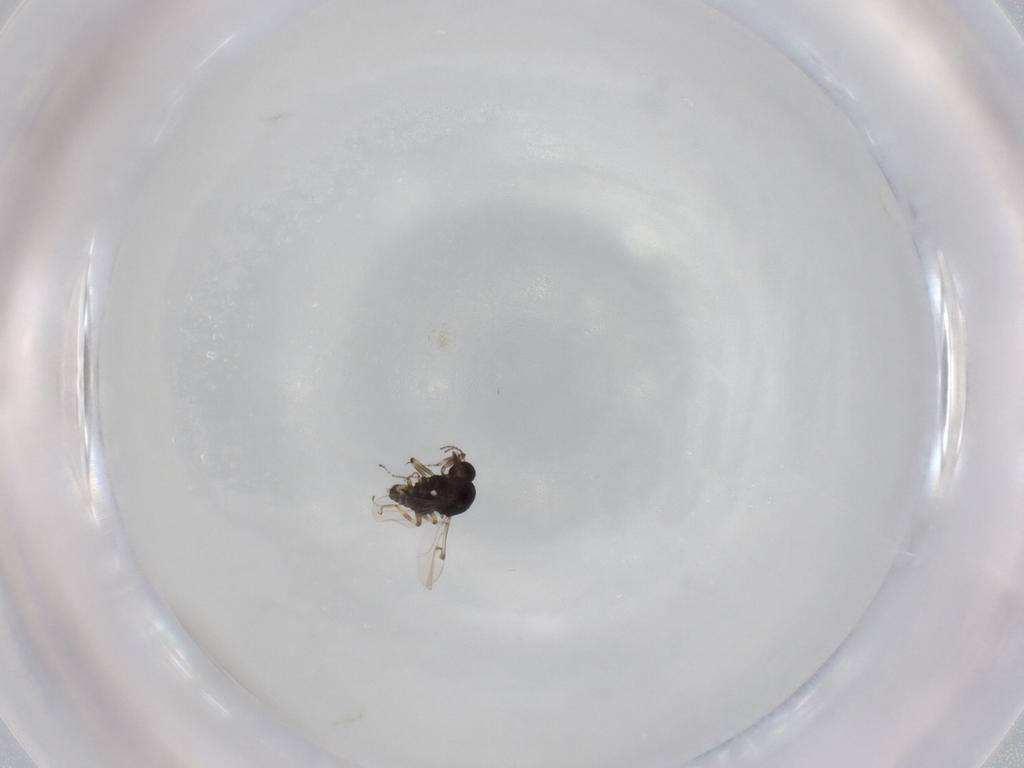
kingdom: Animalia
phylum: Arthropoda
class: Insecta
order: Diptera
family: Ceratopogonidae
